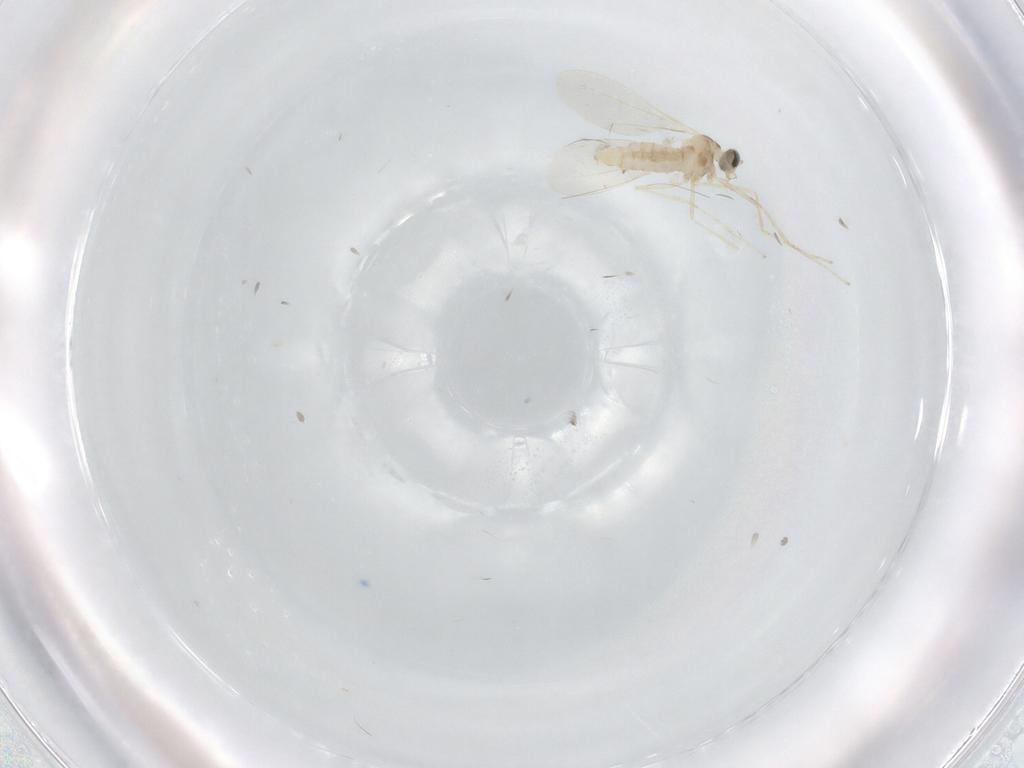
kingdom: Animalia
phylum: Arthropoda
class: Insecta
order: Diptera
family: Cecidomyiidae
